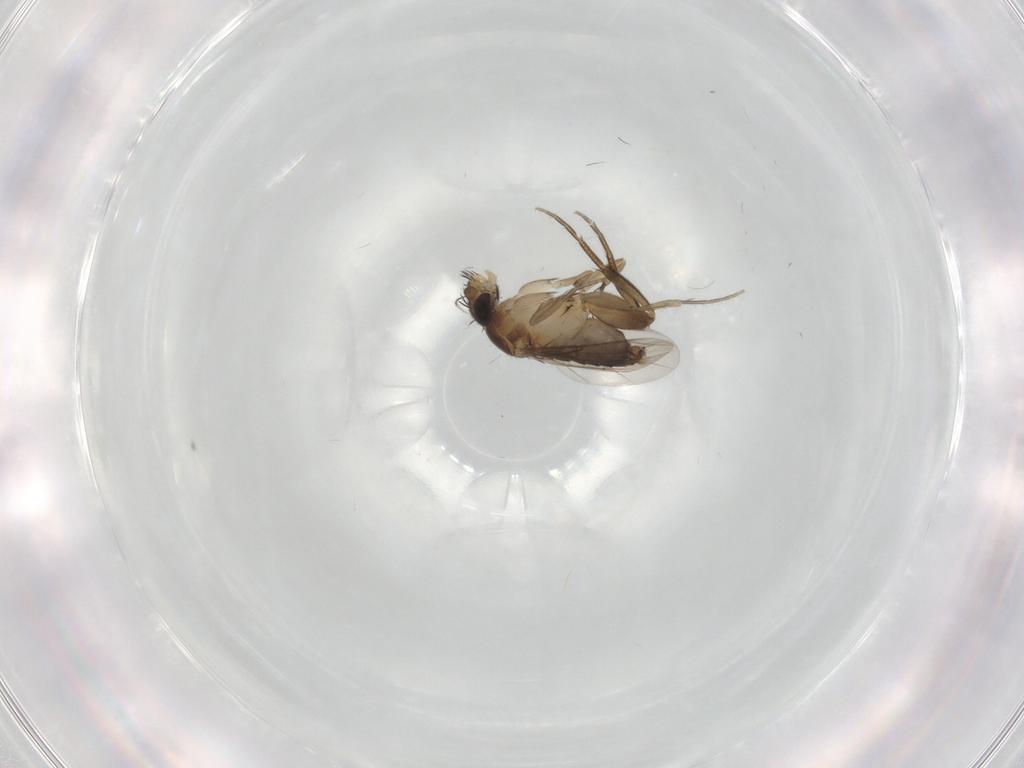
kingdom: Animalia
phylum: Arthropoda
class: Insecta
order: Diptera
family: Phoridae
